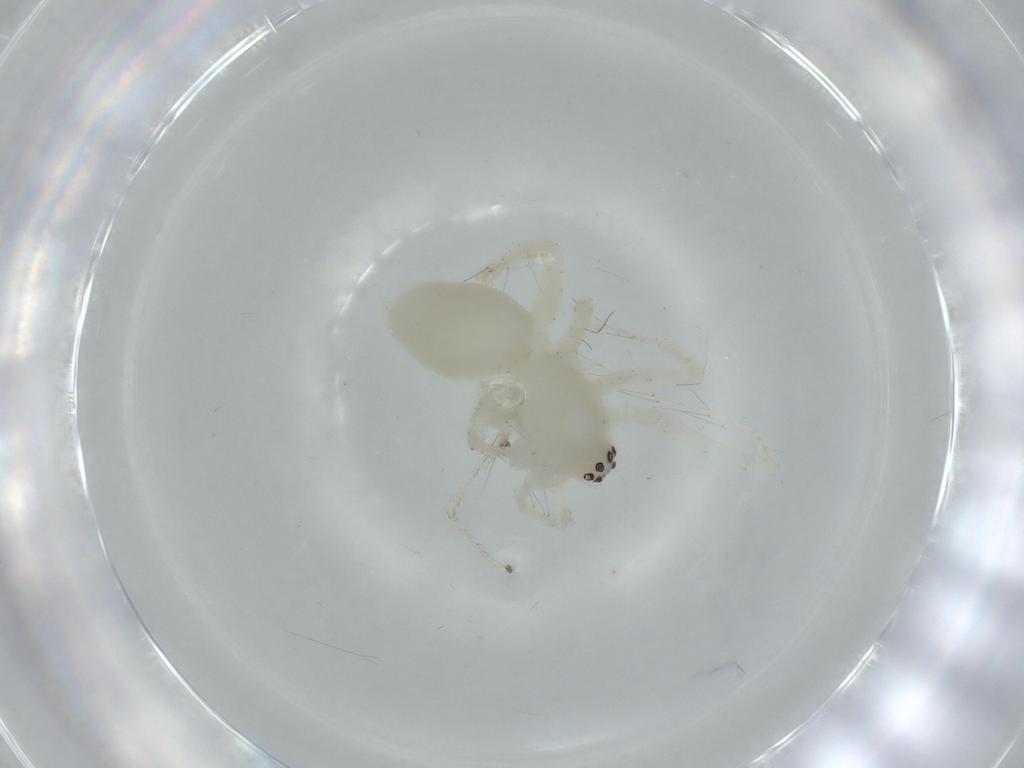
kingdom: Animalia
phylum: Arthropoda
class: Arachnida
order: Araneae
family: Anyphaenidae
